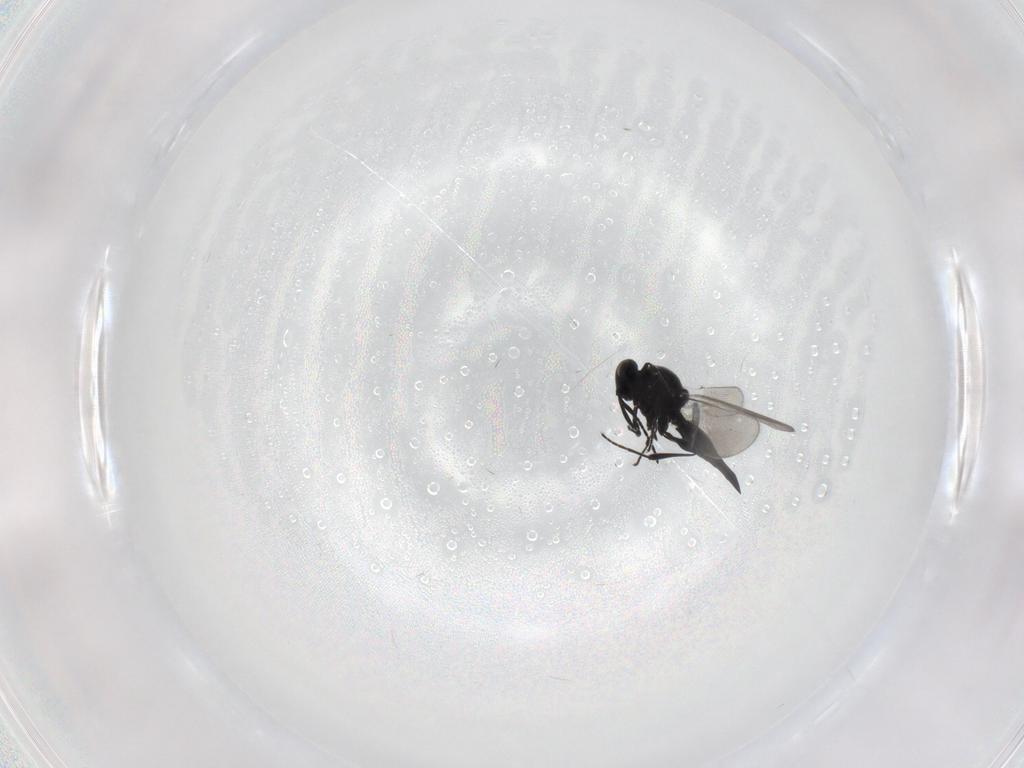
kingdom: Animalia
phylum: Arthropoda
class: Insecta
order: Diptera
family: Mythicomyiidae
